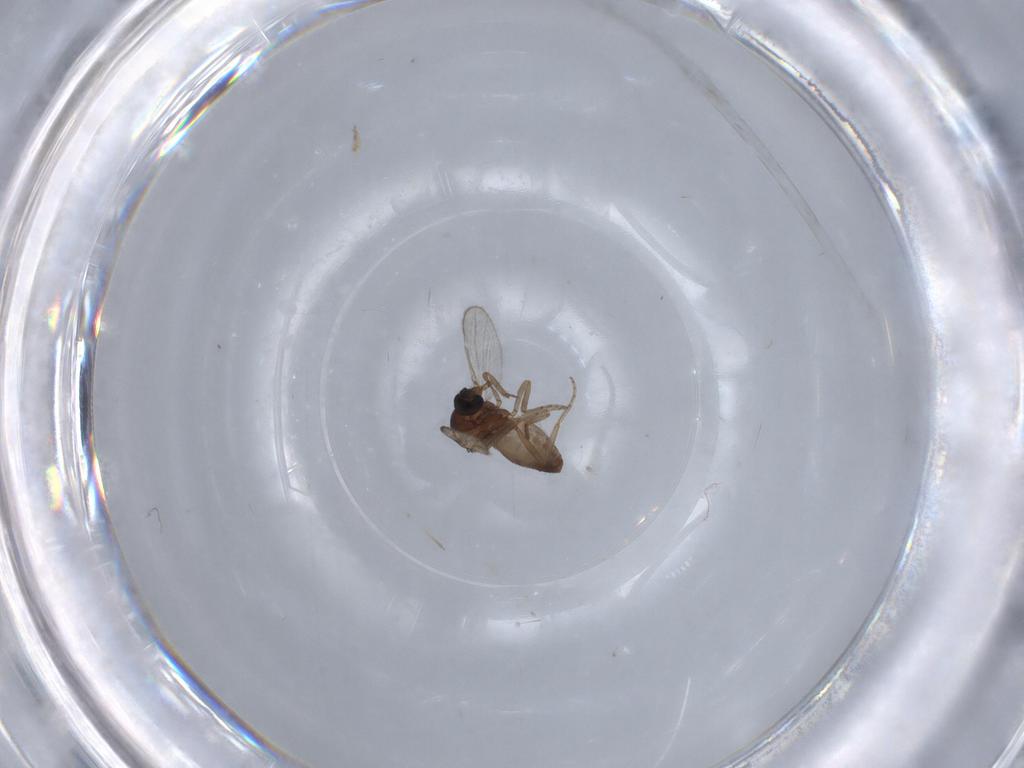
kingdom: Animalia
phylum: Arthropoda
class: Insecta
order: Diptera
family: Ceratopogonidae
